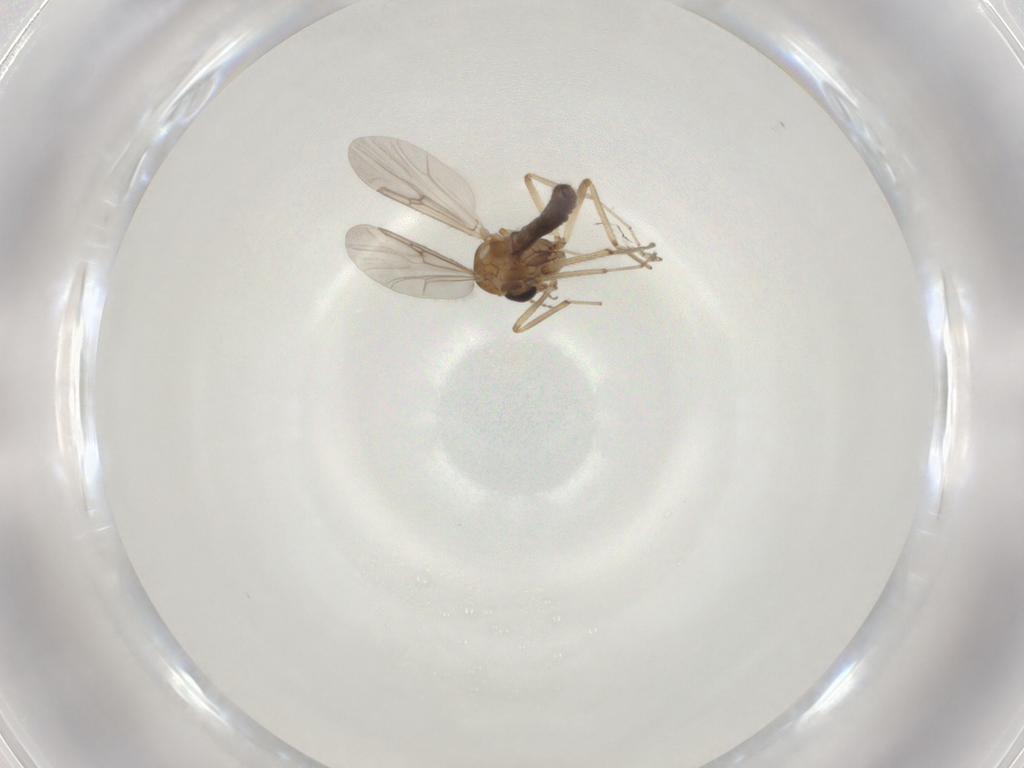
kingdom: Animalia
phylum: Arthropoda
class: Insecta
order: Diptera
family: Ceratopogonidae
